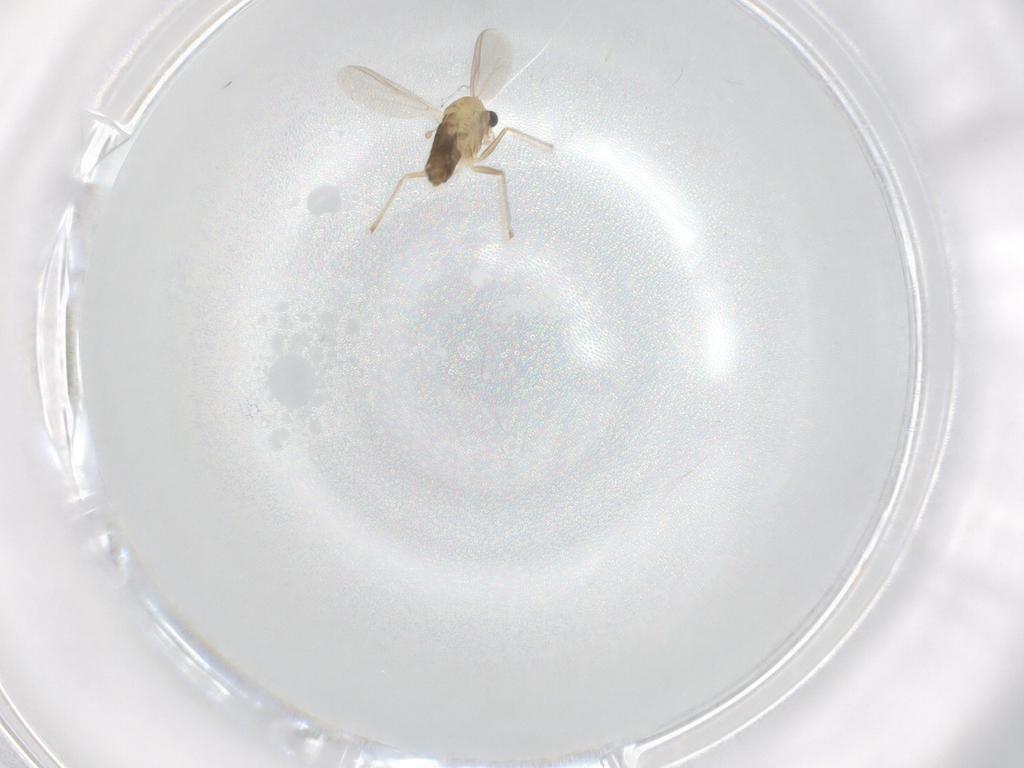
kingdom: Animalia
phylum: Arthropoda
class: Insecta
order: Diptera
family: Chironomidae
